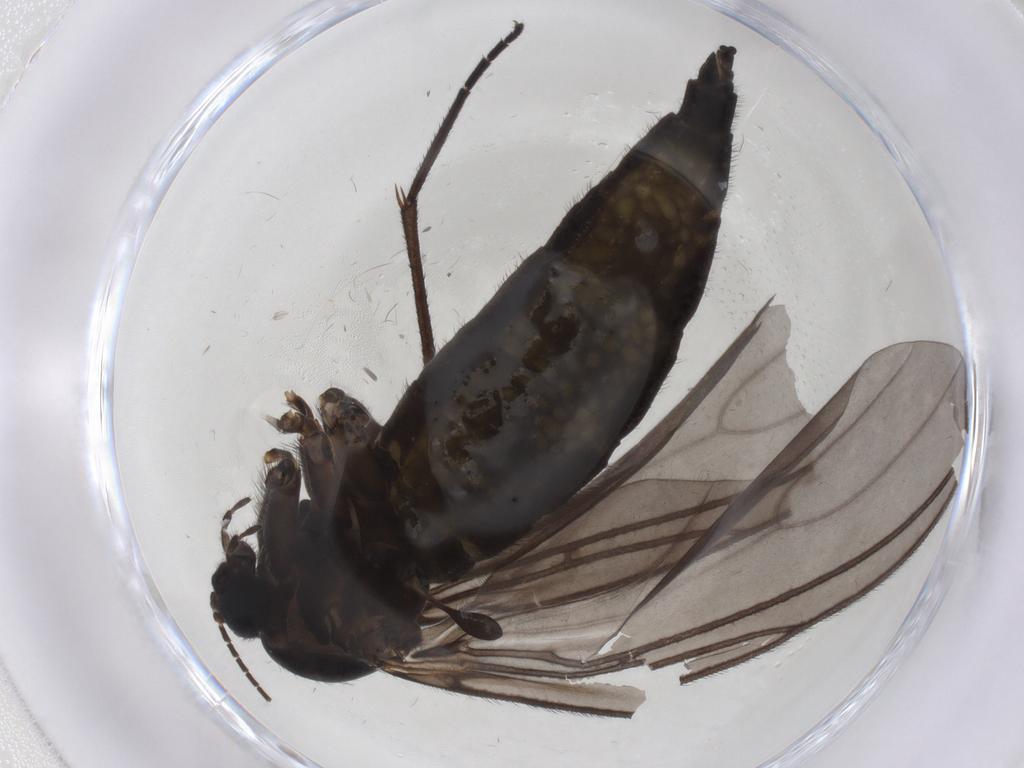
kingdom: Animalia
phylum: Arthropoda
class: Insecta
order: Diptera
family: Sciaridae
